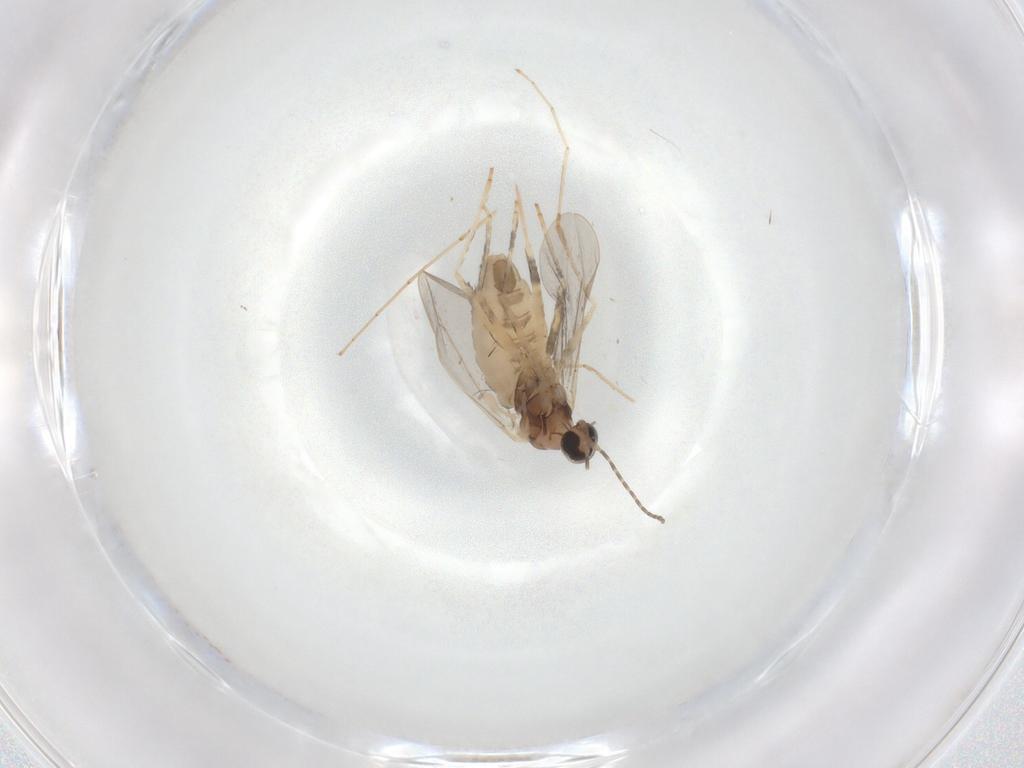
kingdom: Animalia
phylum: Arthropoda
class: Insecta
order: Diptera
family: Cecidomyiidae
